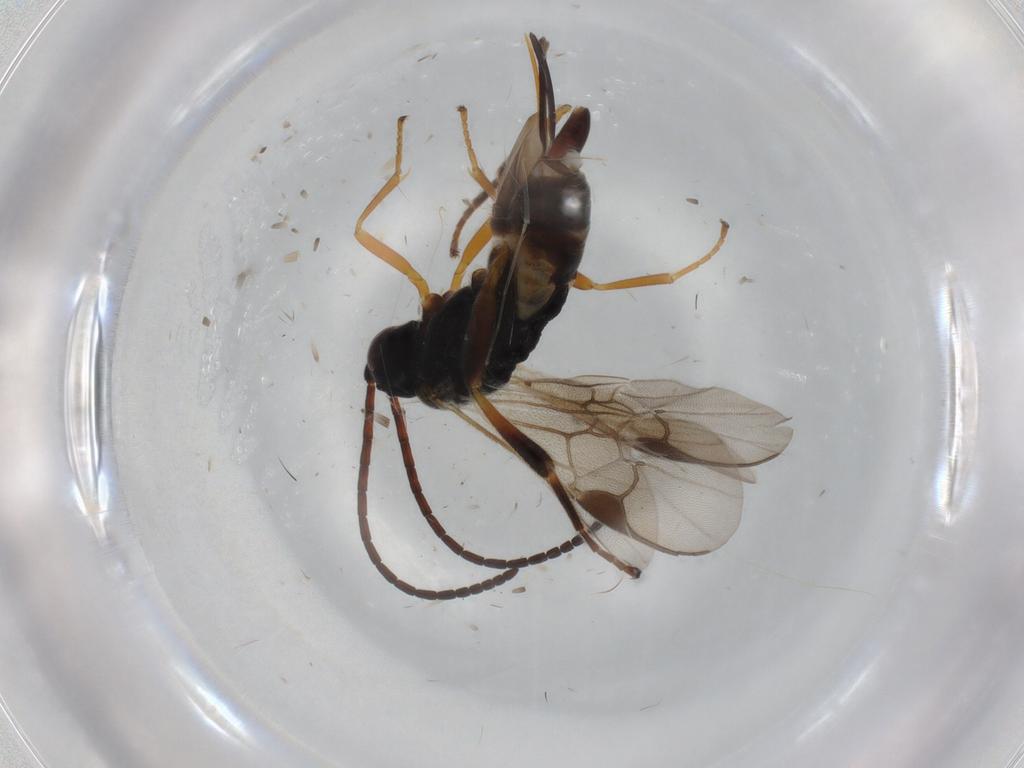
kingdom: Animalia
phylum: Arthropoda
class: Insecta
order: Hymenoptera
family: Braconidae
